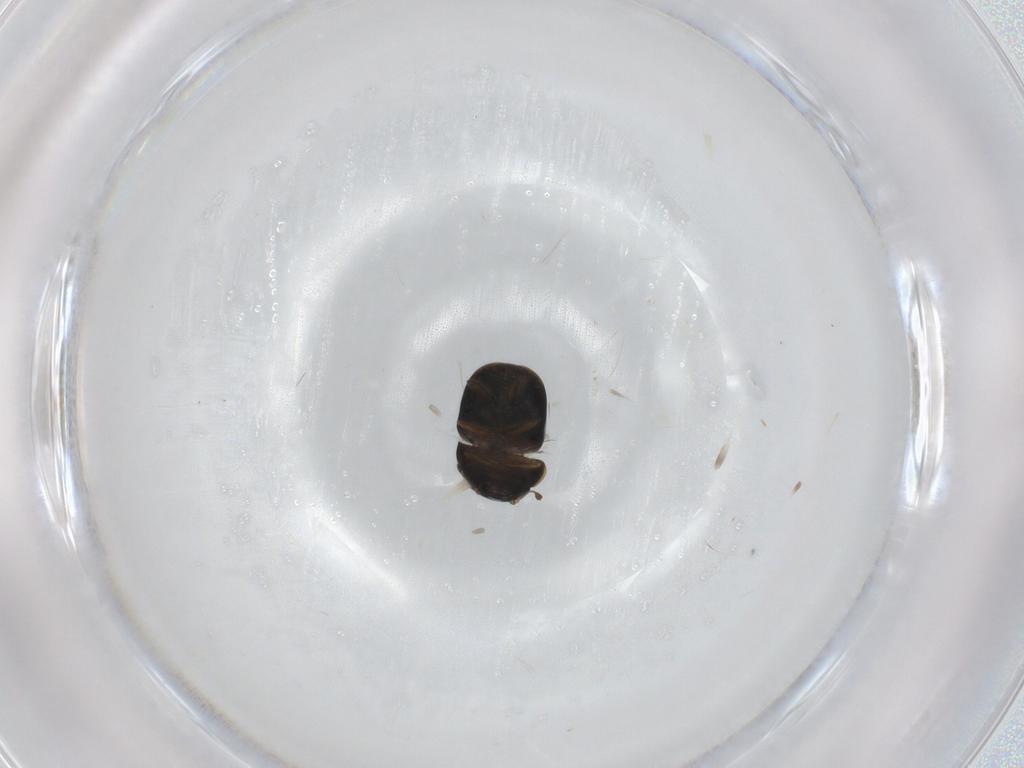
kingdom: Animalia
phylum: Arthropoda
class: Insecta
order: Coleoptera
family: Cybocephalidae
